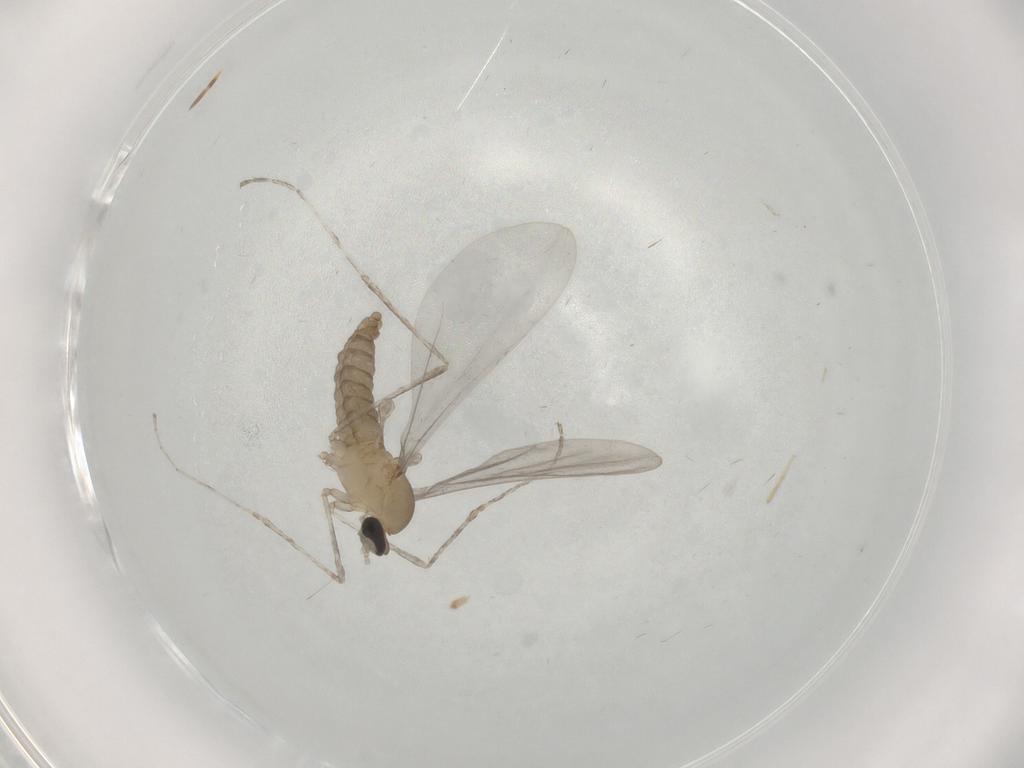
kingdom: Animalia
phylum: Arthropoda
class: Insecta
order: Diptera
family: Cecidomyiidae
